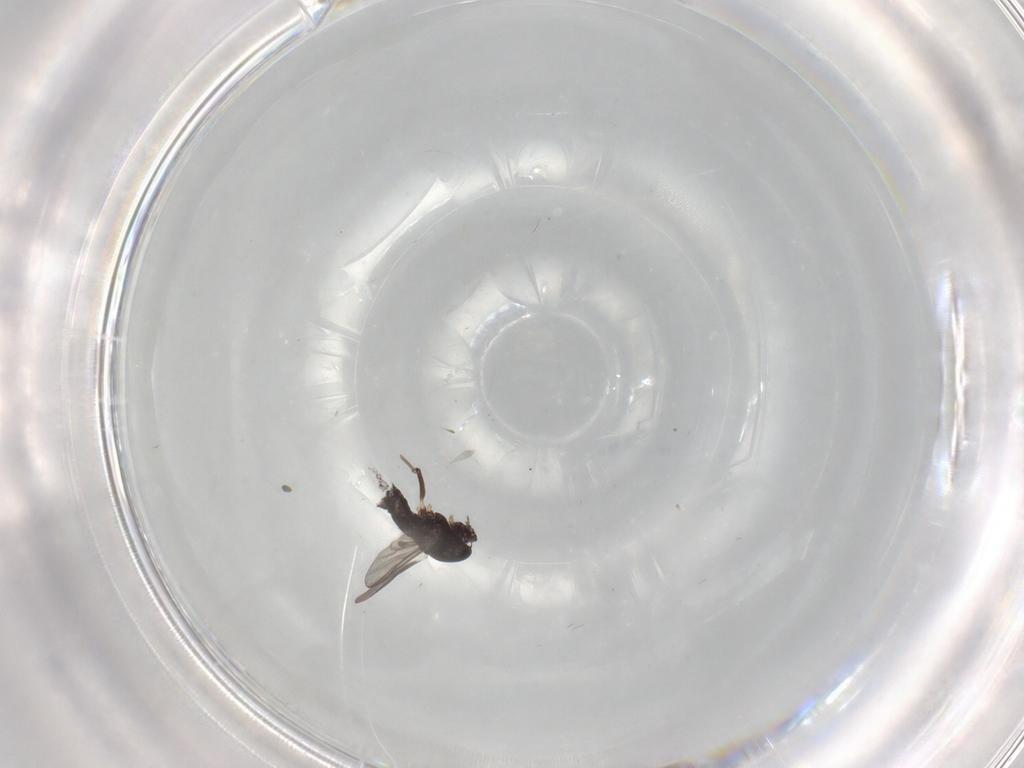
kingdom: Animalia
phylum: Arthropoda
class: Insecta
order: Diptera
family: Chironomidae
